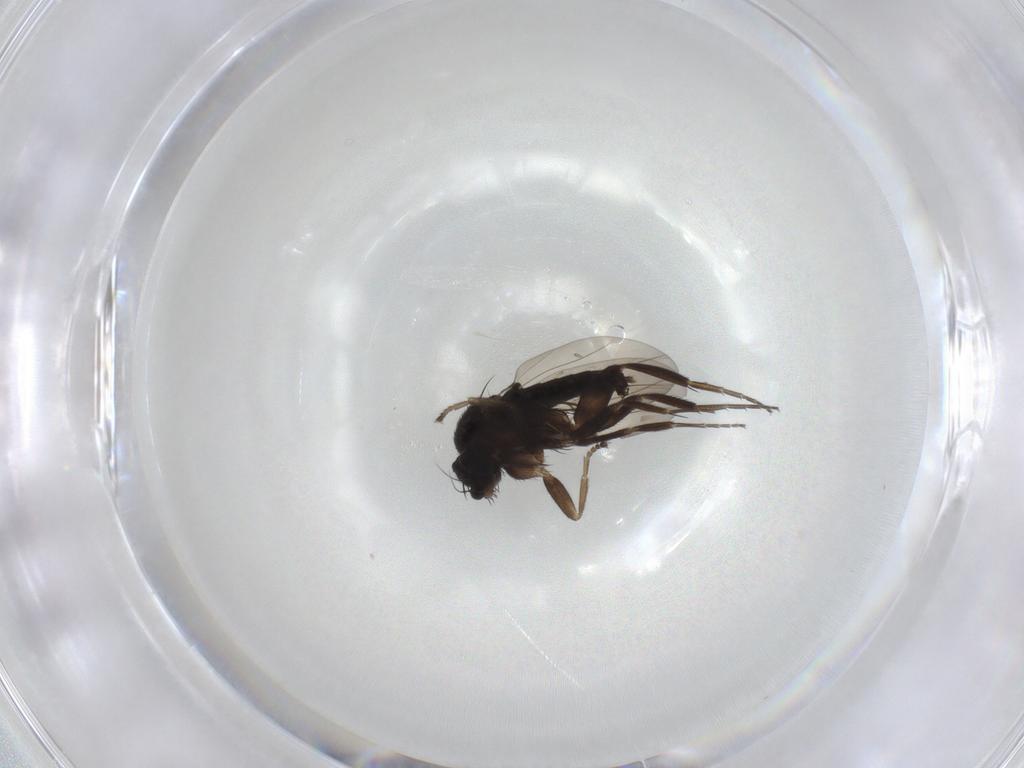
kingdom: Animalia
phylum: Arthropoda
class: Insecta
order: Diptera
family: Phoridae
